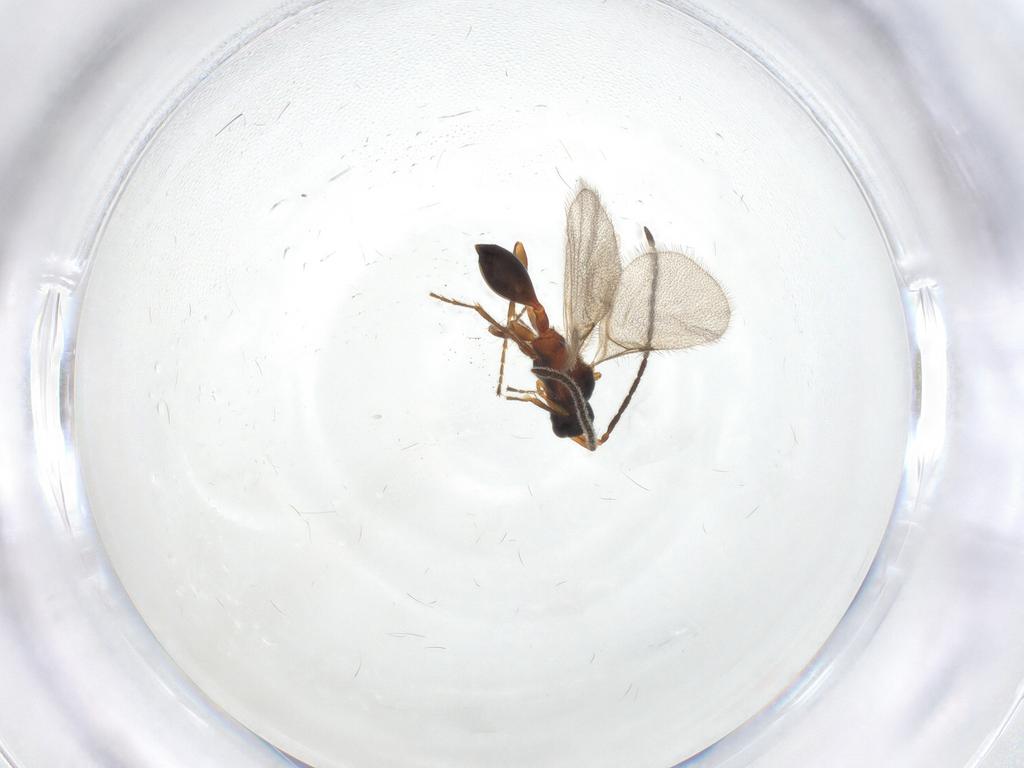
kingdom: Animalia
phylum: Arthropoda
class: Insecta
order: Hymenoptera
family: Diapriidae
